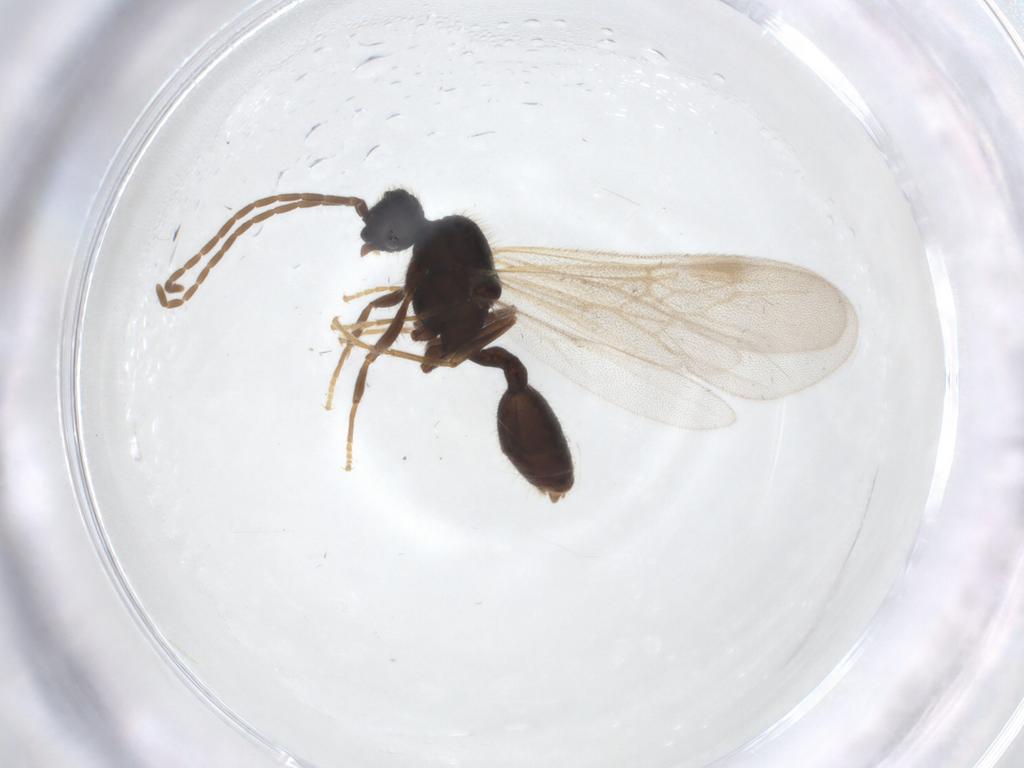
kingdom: Animalia
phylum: Arthropoda
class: Insecta
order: Hymenoptera
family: Formicidae
